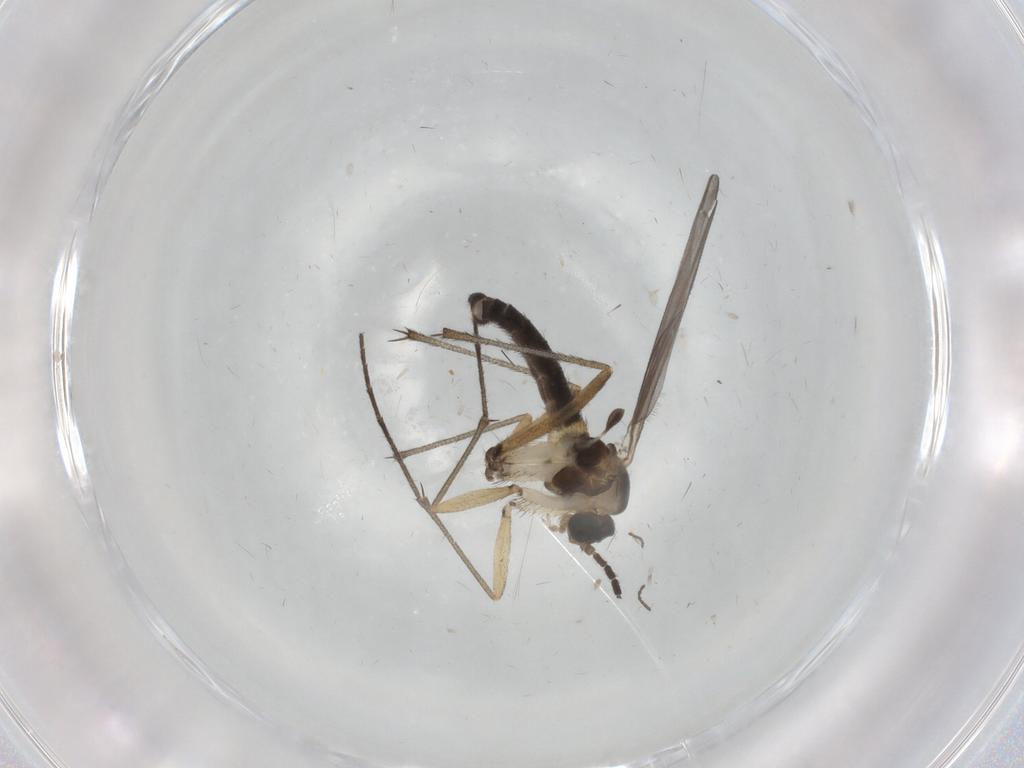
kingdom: Animalia
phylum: Arthropoda
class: Insecta
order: Diptera
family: Sciaridae
